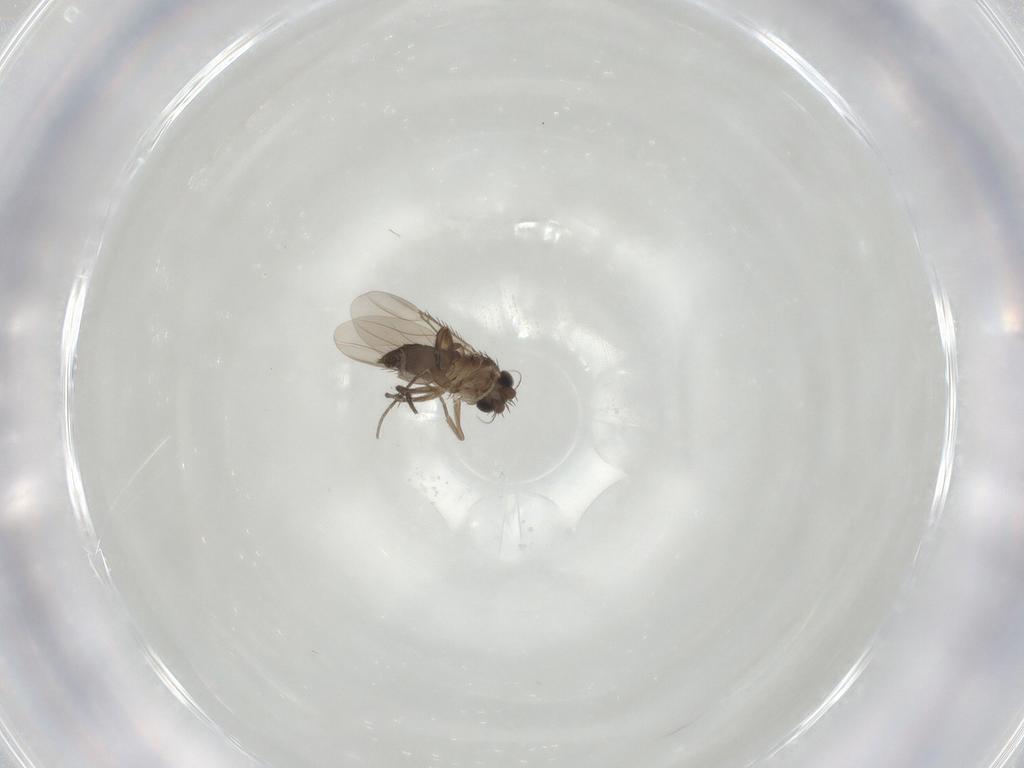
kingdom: Animalia
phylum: Arthropoda
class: Insecta
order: Diptera
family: Phoridae
